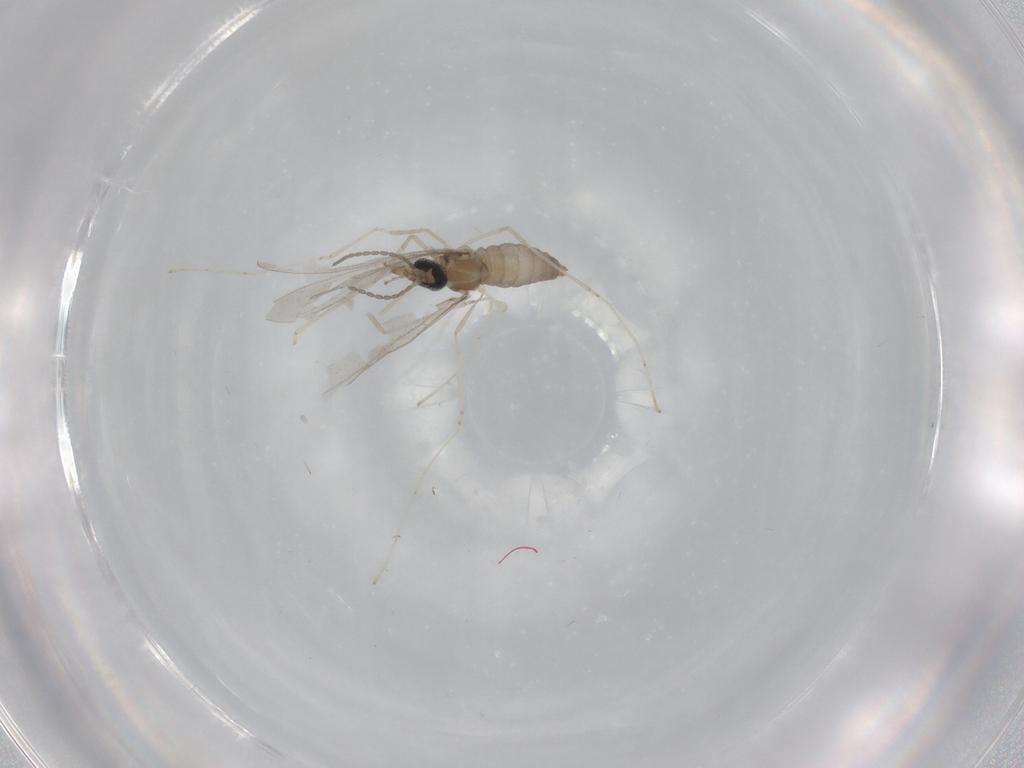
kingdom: Animalia
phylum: Arthropoda
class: Insecta
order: Diptera
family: Cecidomyiidae
